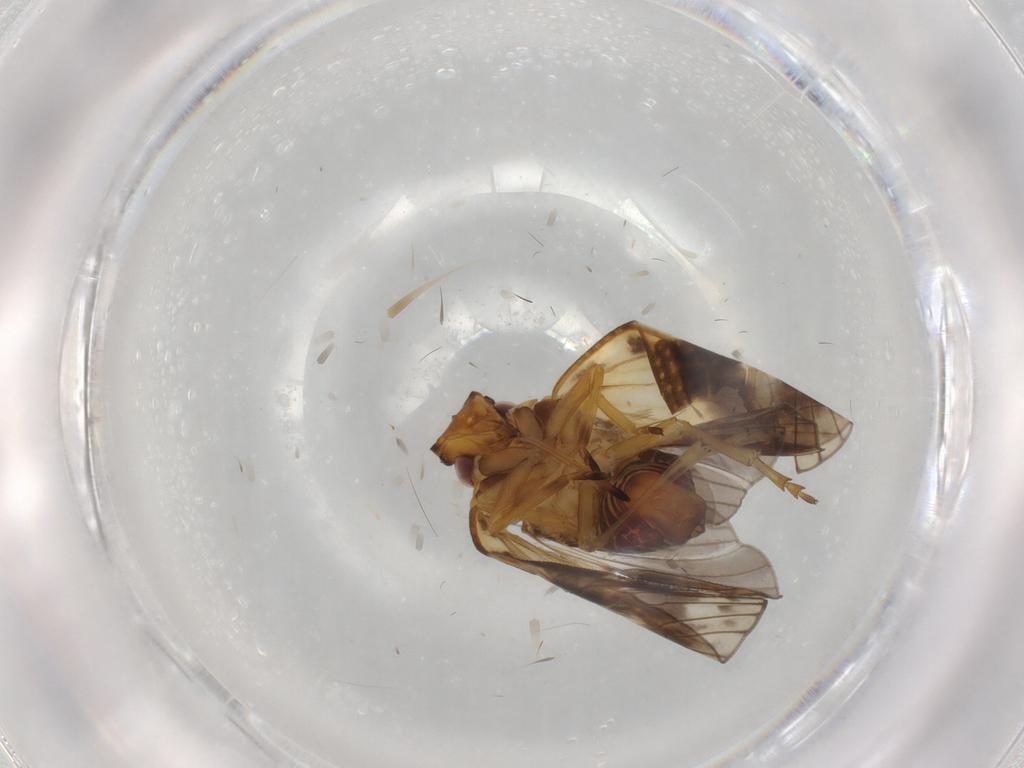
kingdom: Animalia
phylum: Arthropoda
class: Insecta
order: Hemiptera
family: Cixiidae
